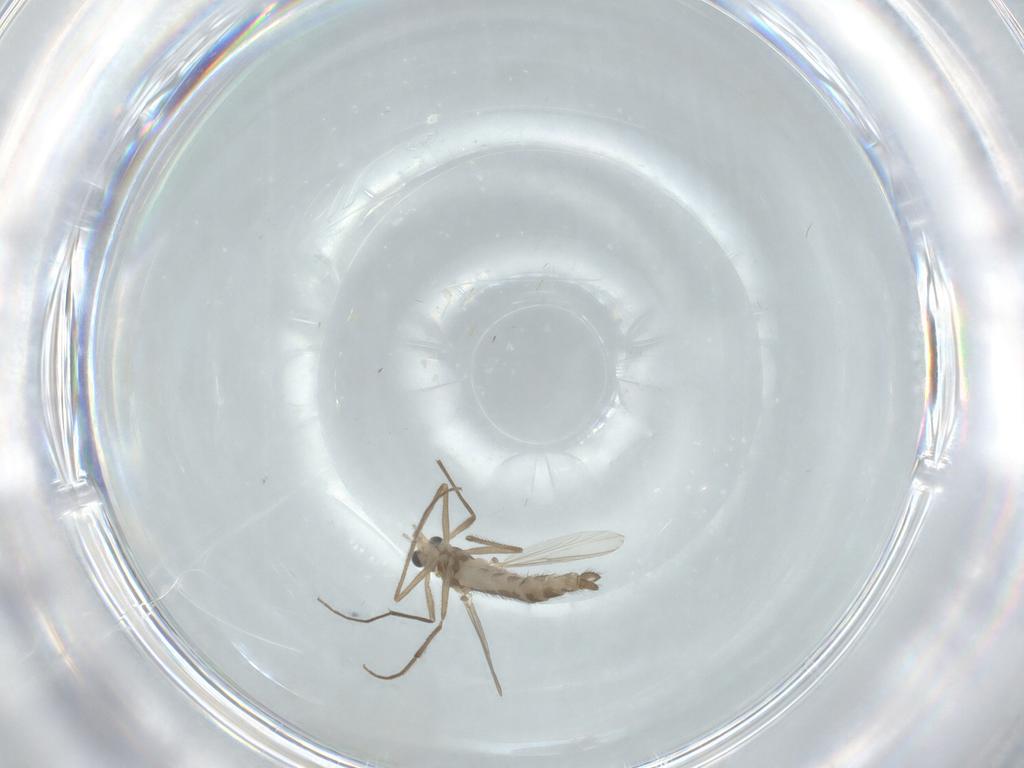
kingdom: Animalia
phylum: Arthropoda
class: Insecta
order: Diptera
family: Chironomidae
